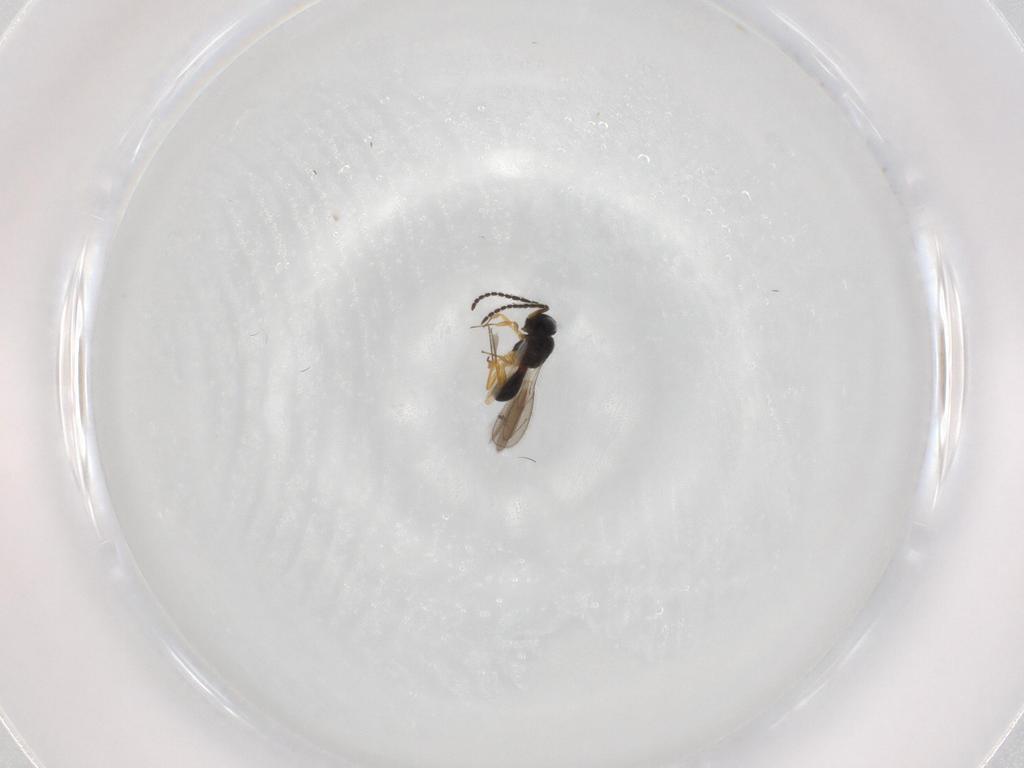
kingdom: Animalia
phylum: Arthropoda
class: Insecta
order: Hymenoptera
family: Scelionidae
